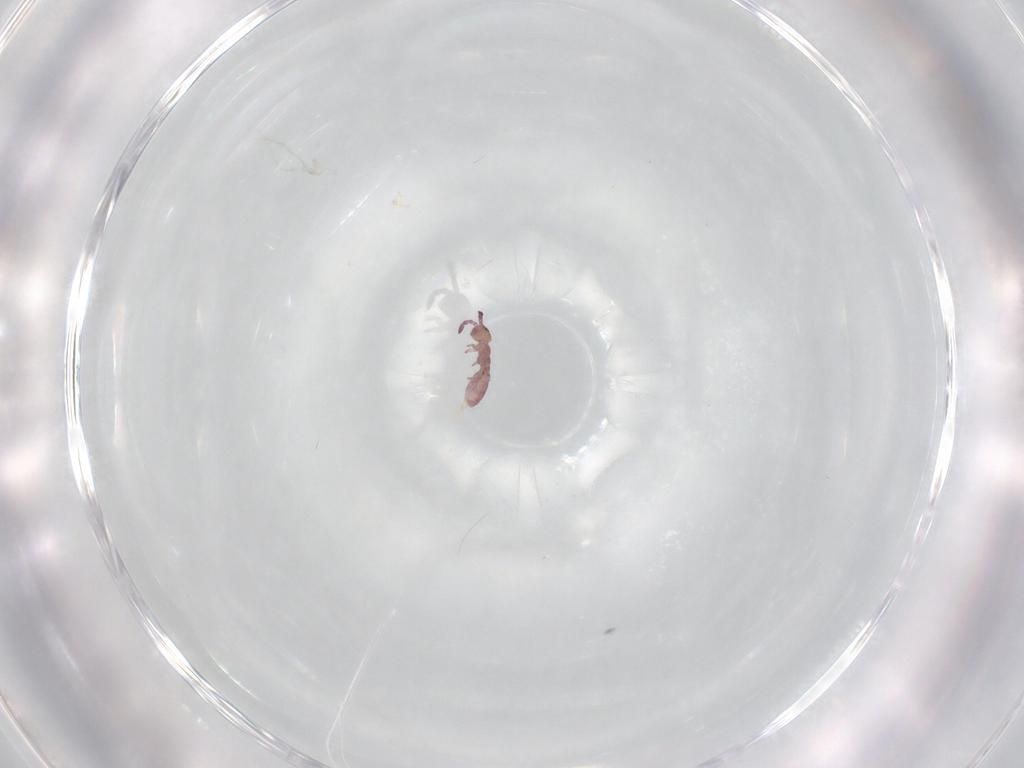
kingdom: Animalia
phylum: Arthropoda
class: Collembola
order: Entomobryomorpha
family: Isotomidae
